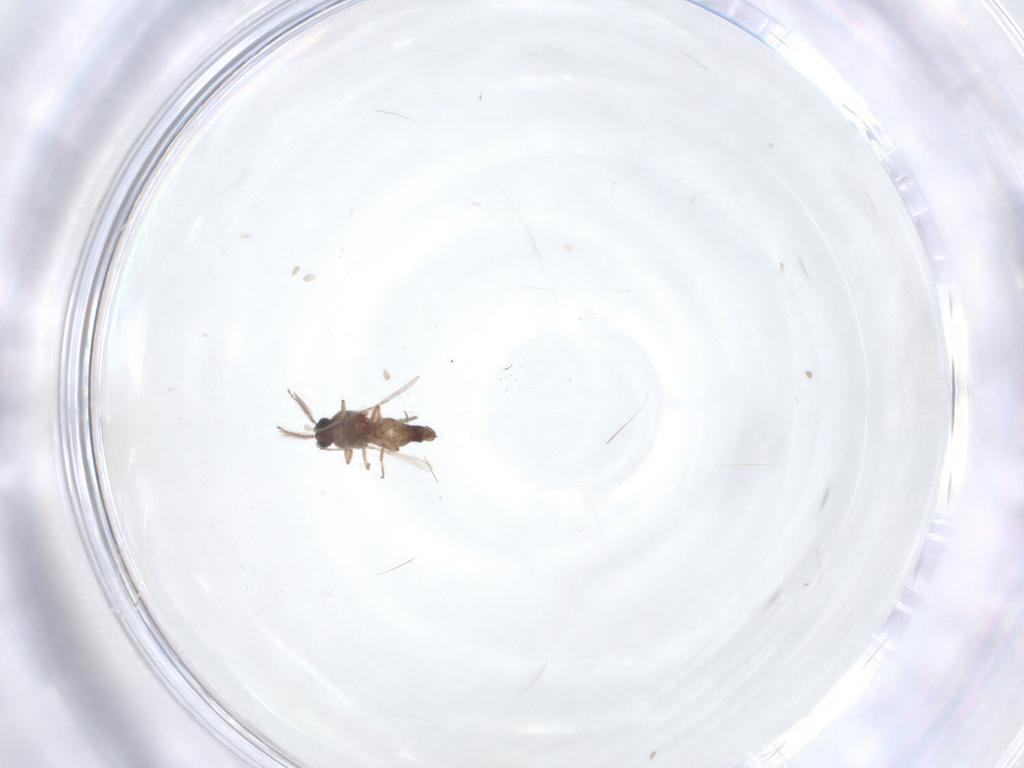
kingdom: Animalia
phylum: Arthropoda
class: Insecta
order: Diptera
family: Ceratopogonidae
